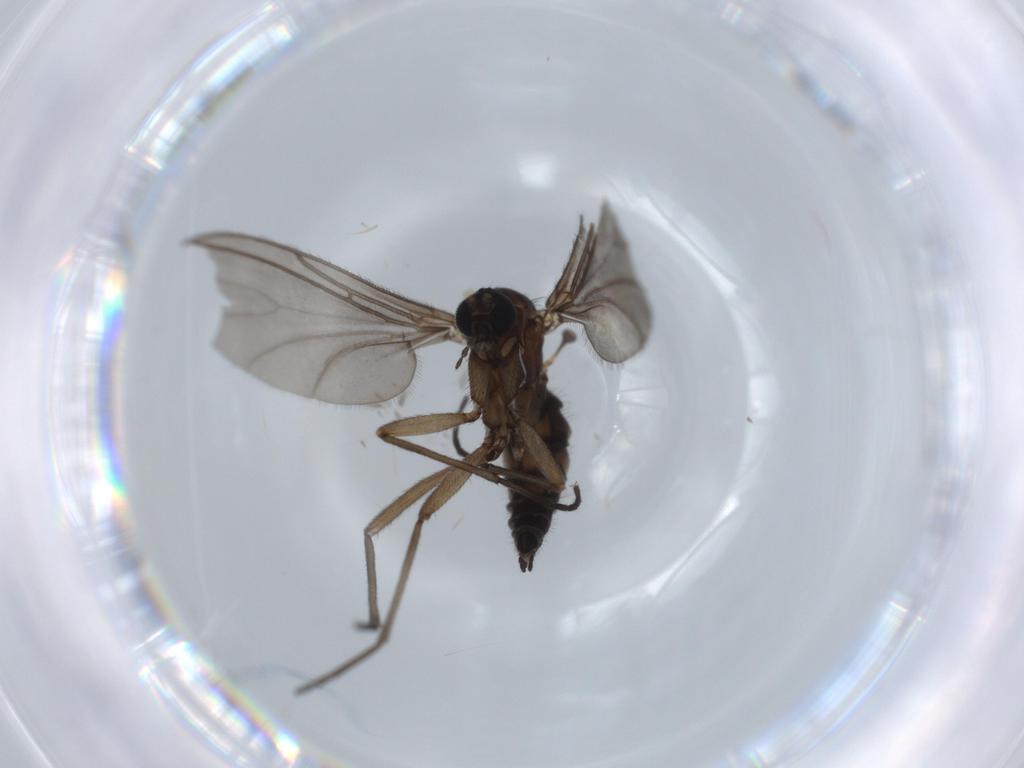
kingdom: Animalia
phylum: Arthropoda
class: Insecta
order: Diptera
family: Sciaridae
